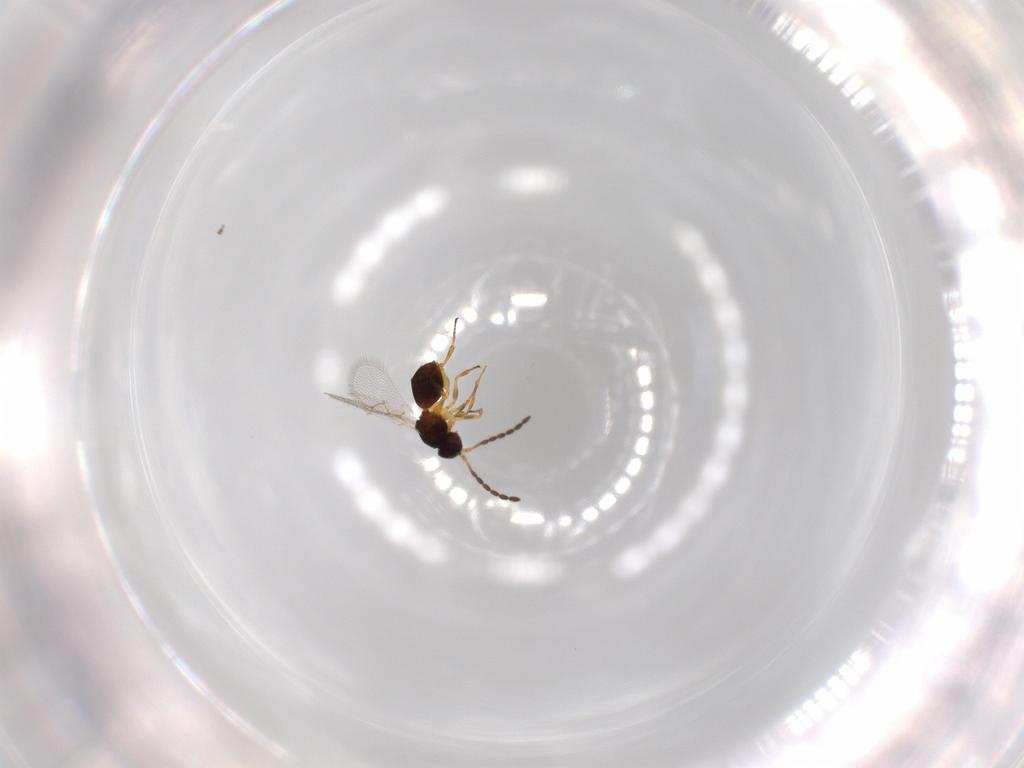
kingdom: Animalia
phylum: Arthropoda
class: Insecta
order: Hymenoptera
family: Figitidae
